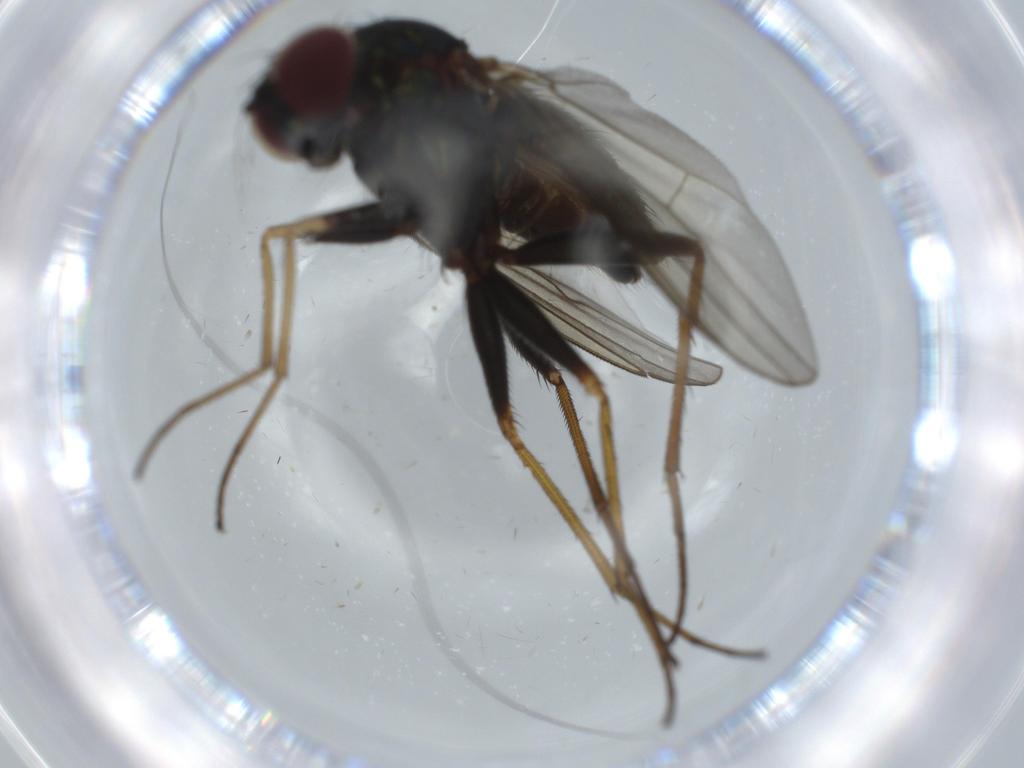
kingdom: Animalia
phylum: Arthropoda
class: Insecta
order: Diptera
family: Dolichopodidae
